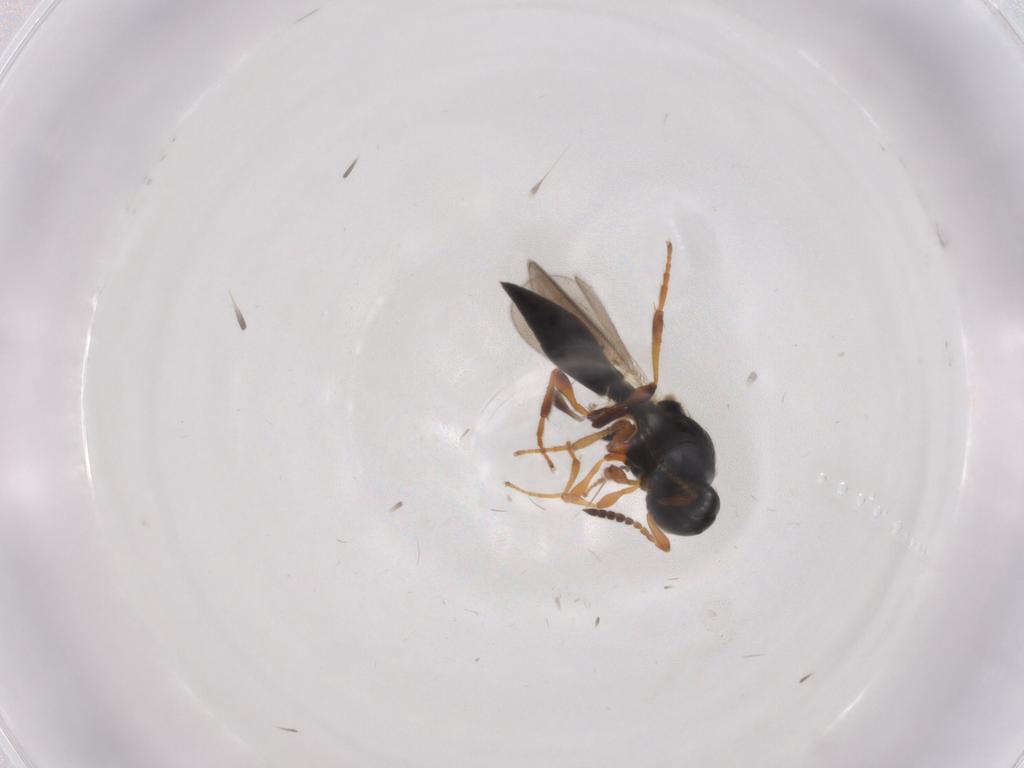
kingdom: Animalia
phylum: Arthropoda
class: Insecta
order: Hymenoptera
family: Platygastridae
